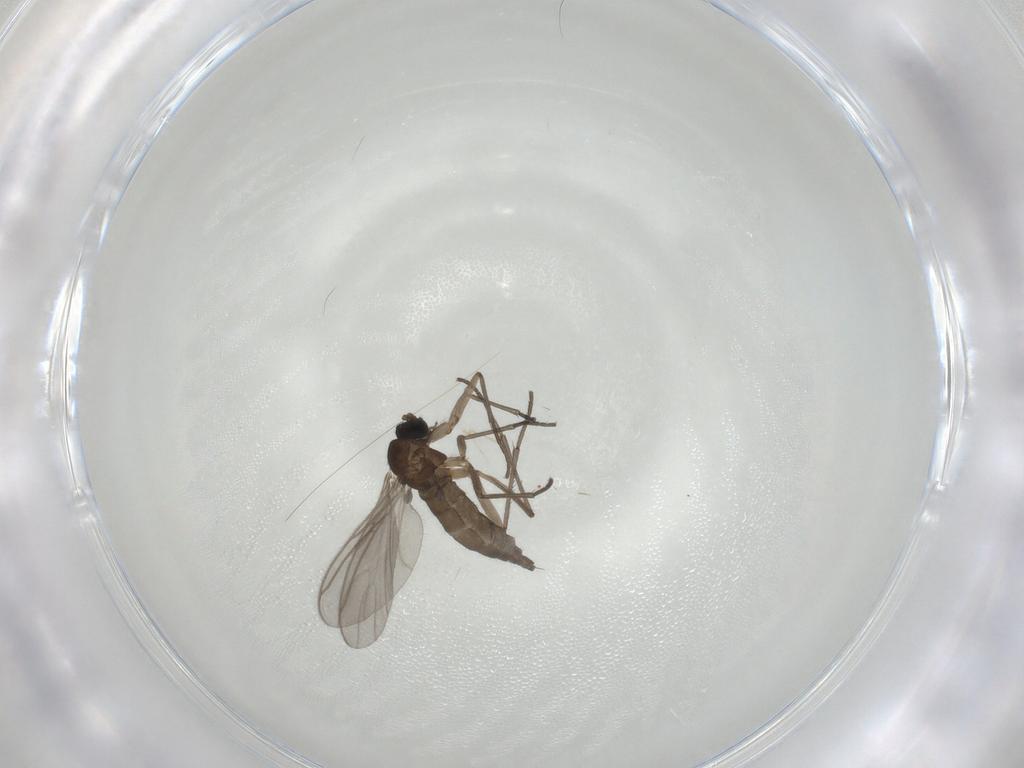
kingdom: Animalia
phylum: Arthropoda
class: Insecta
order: Diptera
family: Sciaridae
